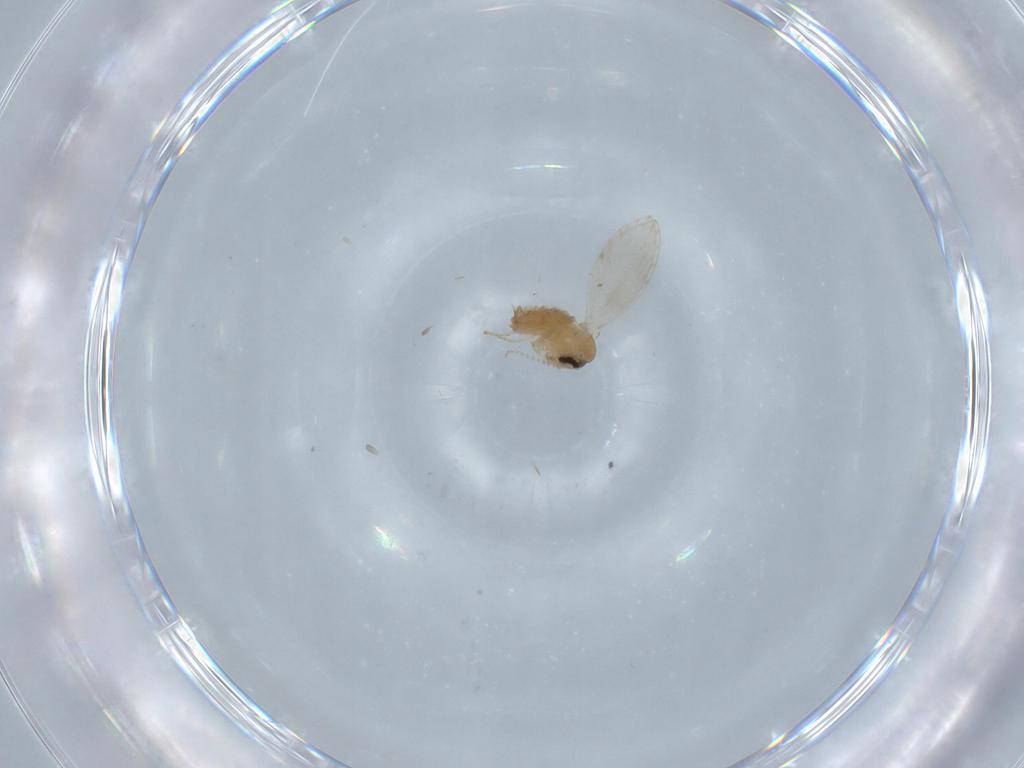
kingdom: Animalia
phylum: Arthropoda
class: Insecta
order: Diptera
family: Psychodidae
